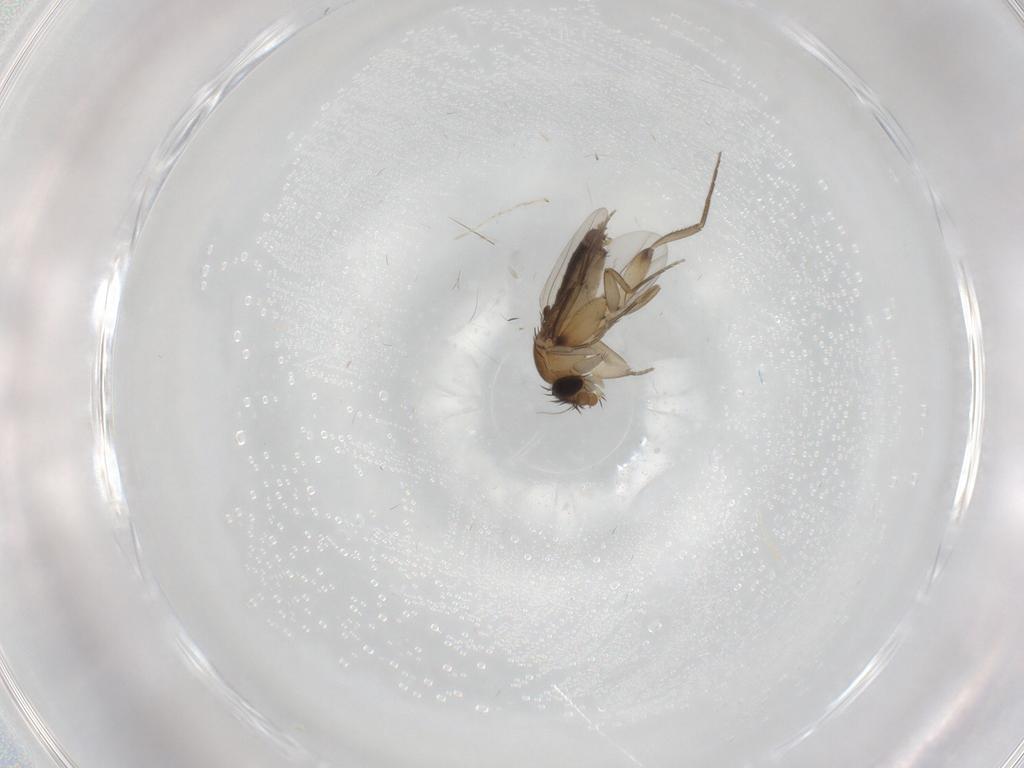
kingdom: Animalia
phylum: Arthropoda
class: Insecta
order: Diptera
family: Phoridae
